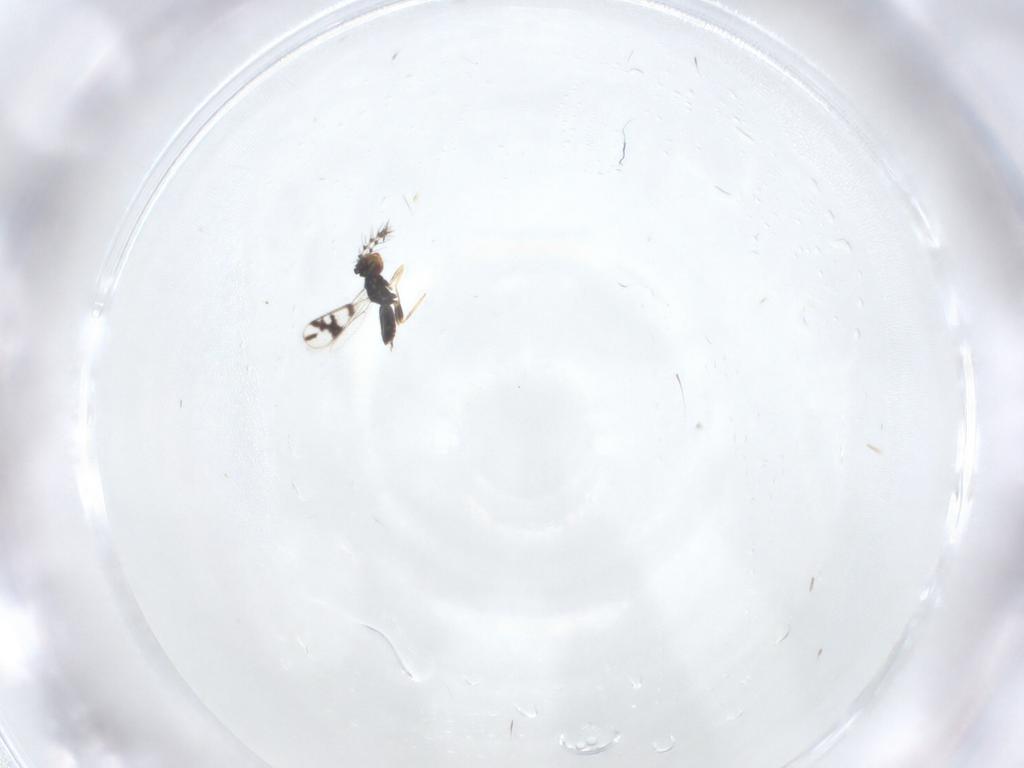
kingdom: Animalia
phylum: Arthropoda
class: Insecta
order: Hymenoptera
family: Eulophidae
